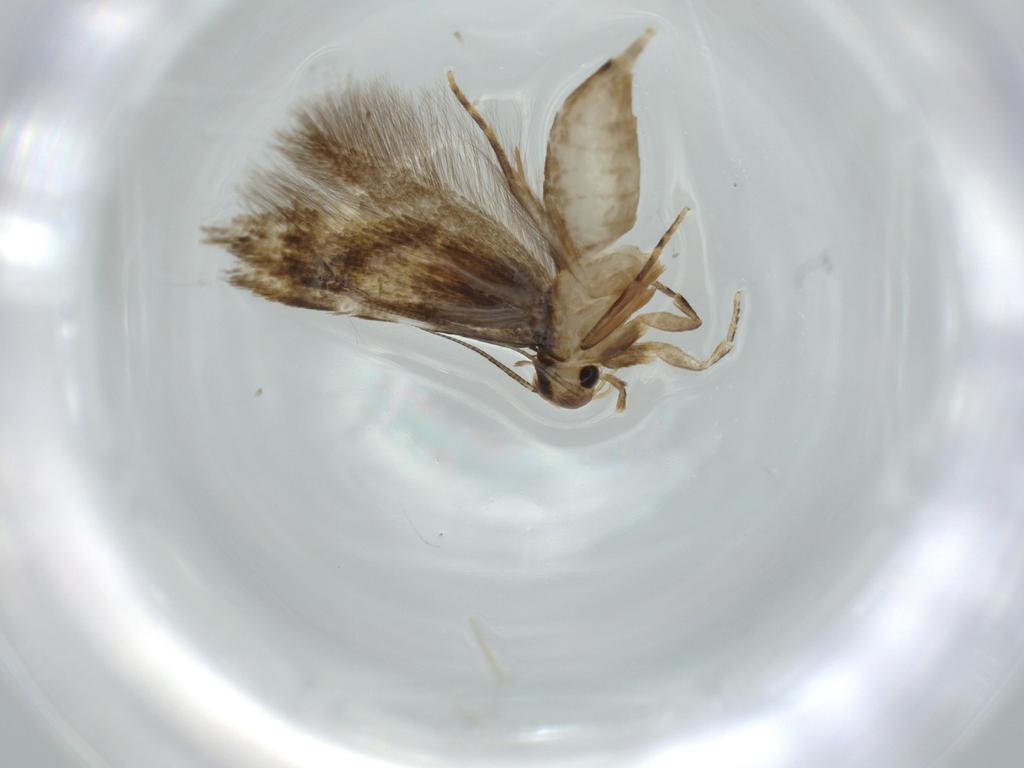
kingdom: Animalia
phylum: Arthropoda
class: Insecta
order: Lepidoptera
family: Tineidae
